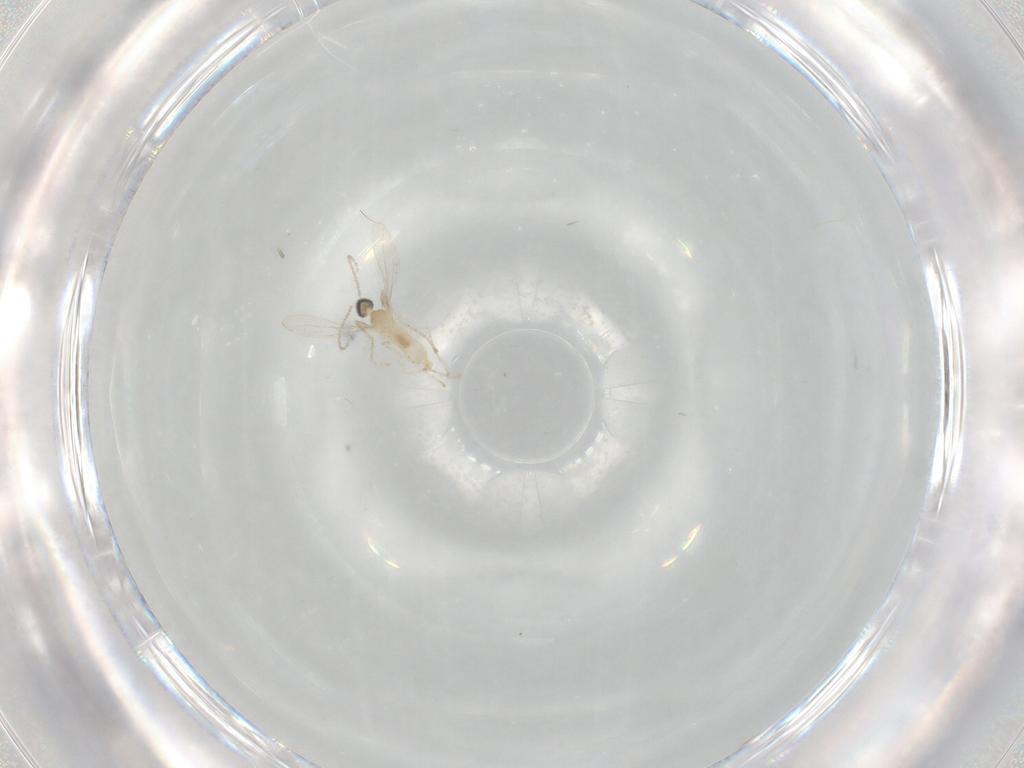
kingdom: Animalia
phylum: Arthropoda
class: Insecta
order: Diptera
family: Cecidomyiidae
